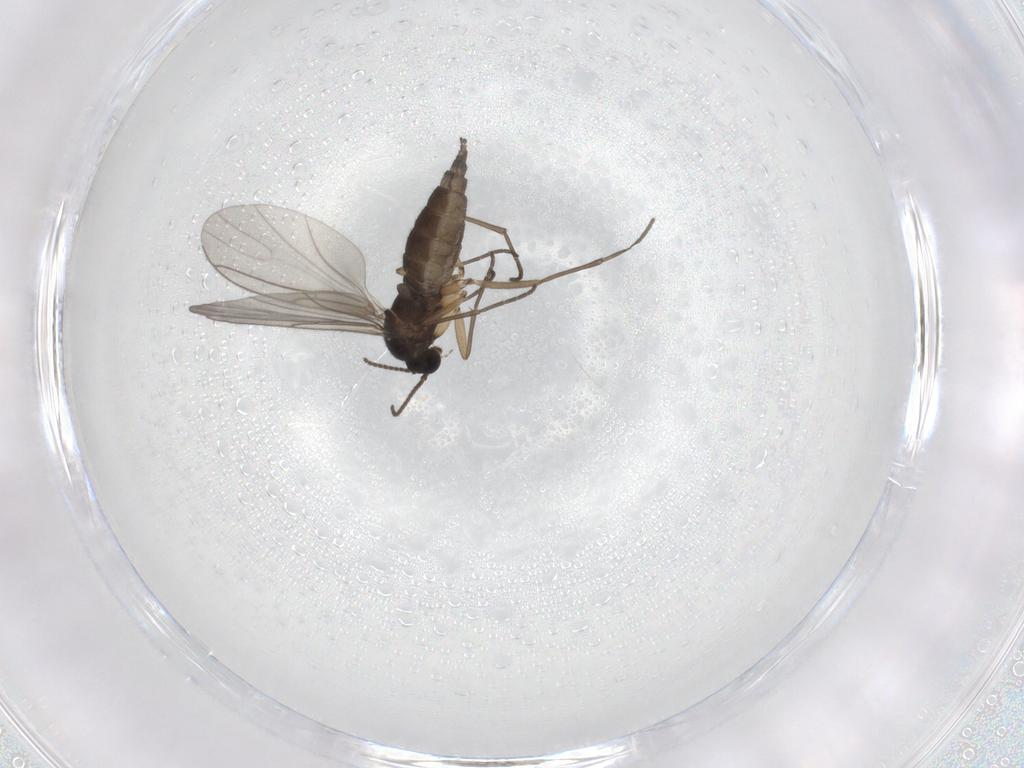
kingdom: Animalia
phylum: Arthropoda
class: Insecta
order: Diptera
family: Sciaridae
